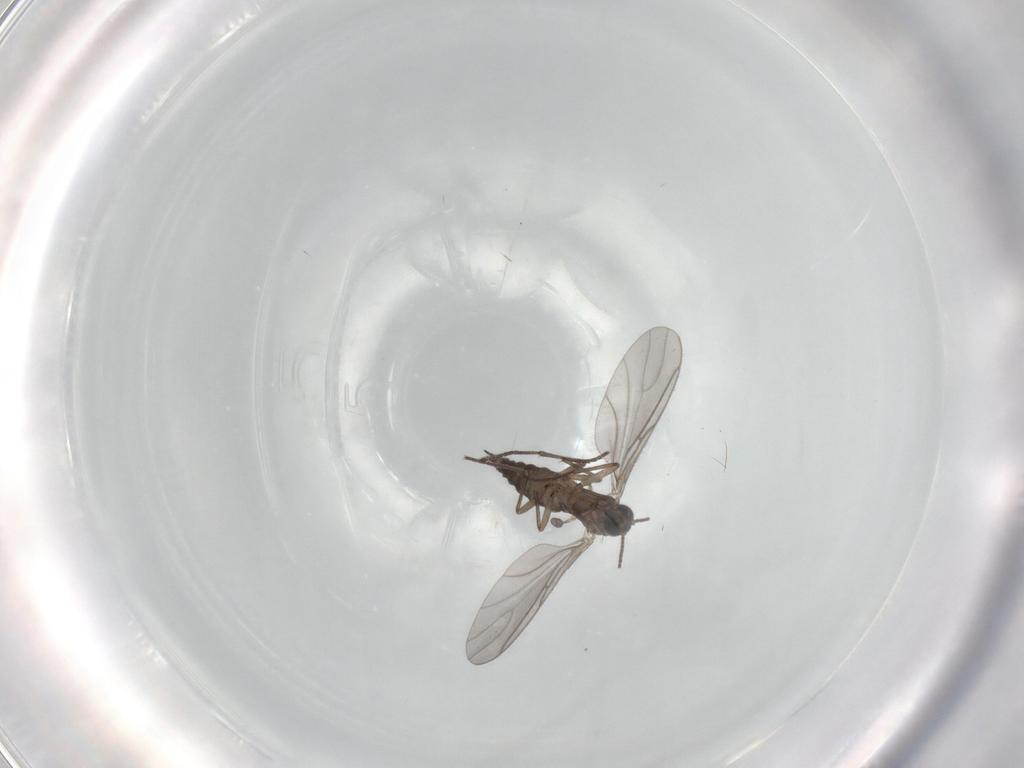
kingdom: Animalia
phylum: Arthropoda
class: Insecta
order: Diptera
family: Sciaridae
